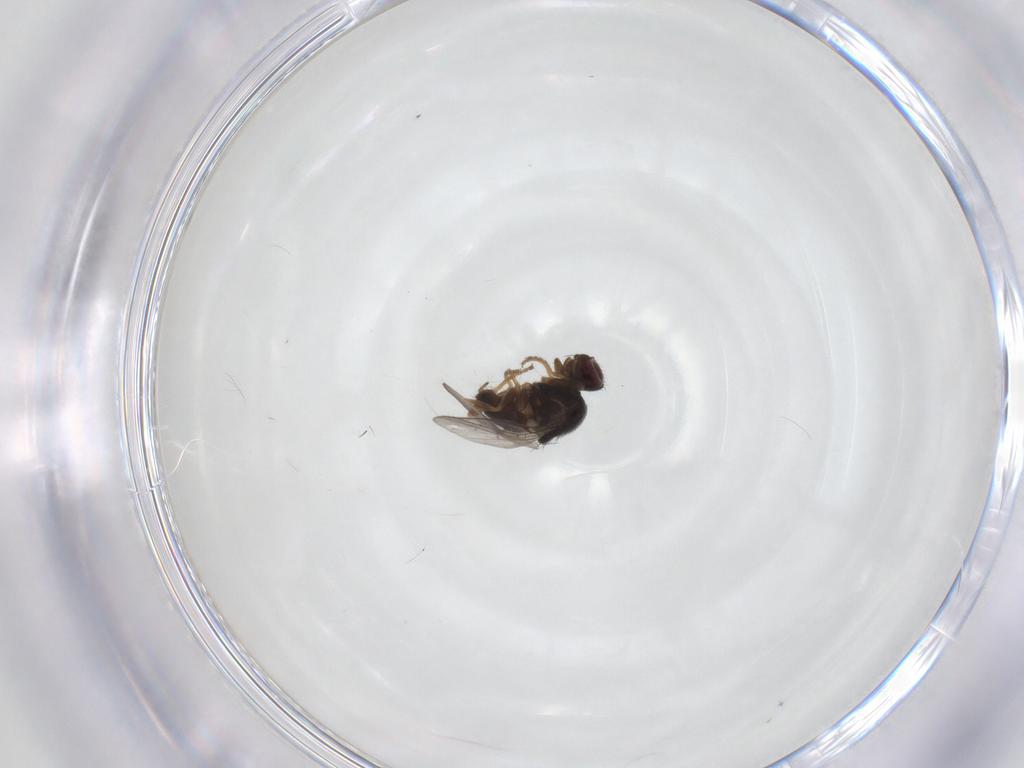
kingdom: Animalia
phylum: Arthropoda
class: Insecta
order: Diptera
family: Chloropidae
